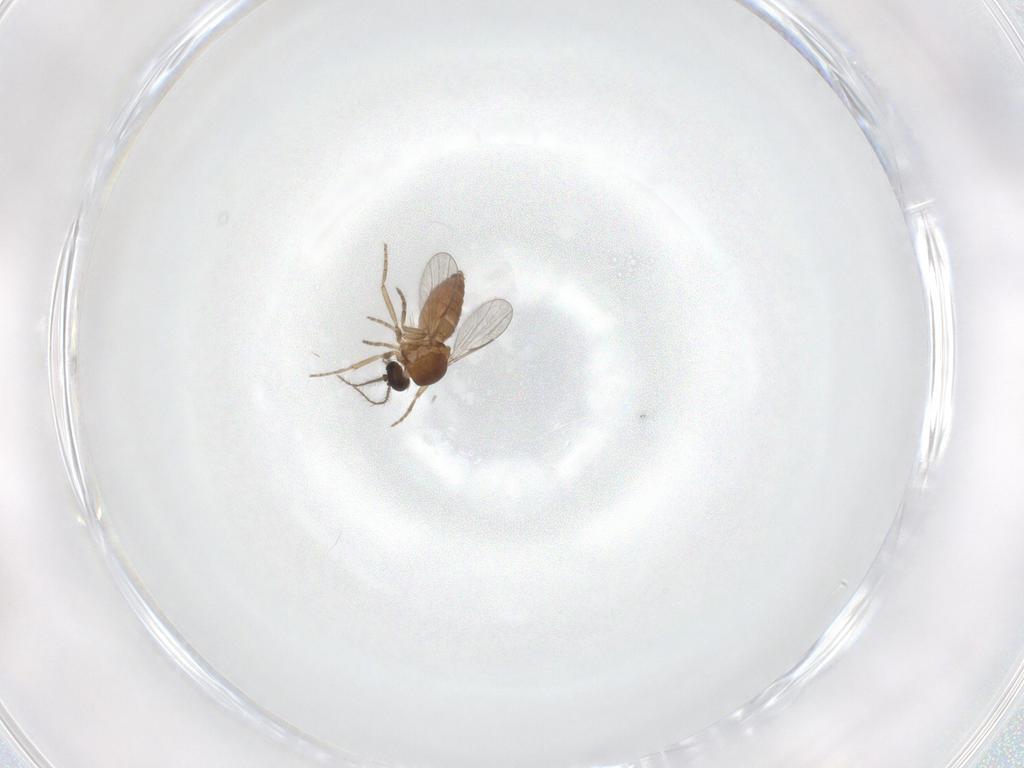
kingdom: Animalia
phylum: Arthropoda
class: Insecta
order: Diptera
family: Ceratopogonidae
